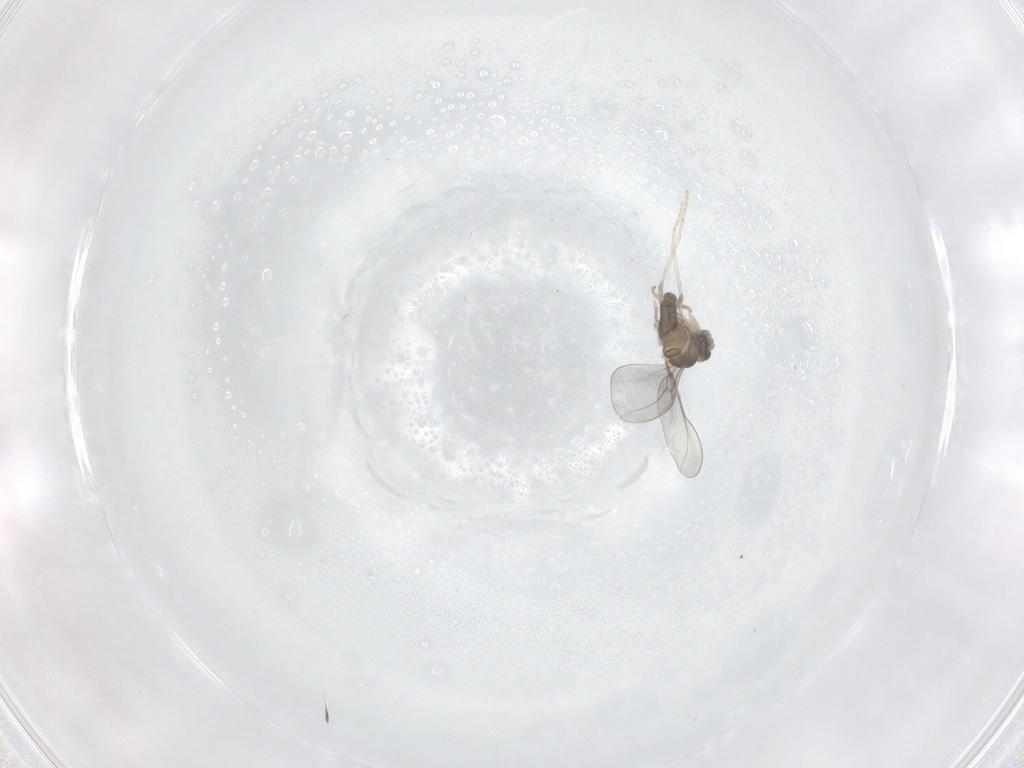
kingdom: Animalia
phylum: Arthropoda
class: Insecta
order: Diptera
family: Cecidomyiidae
